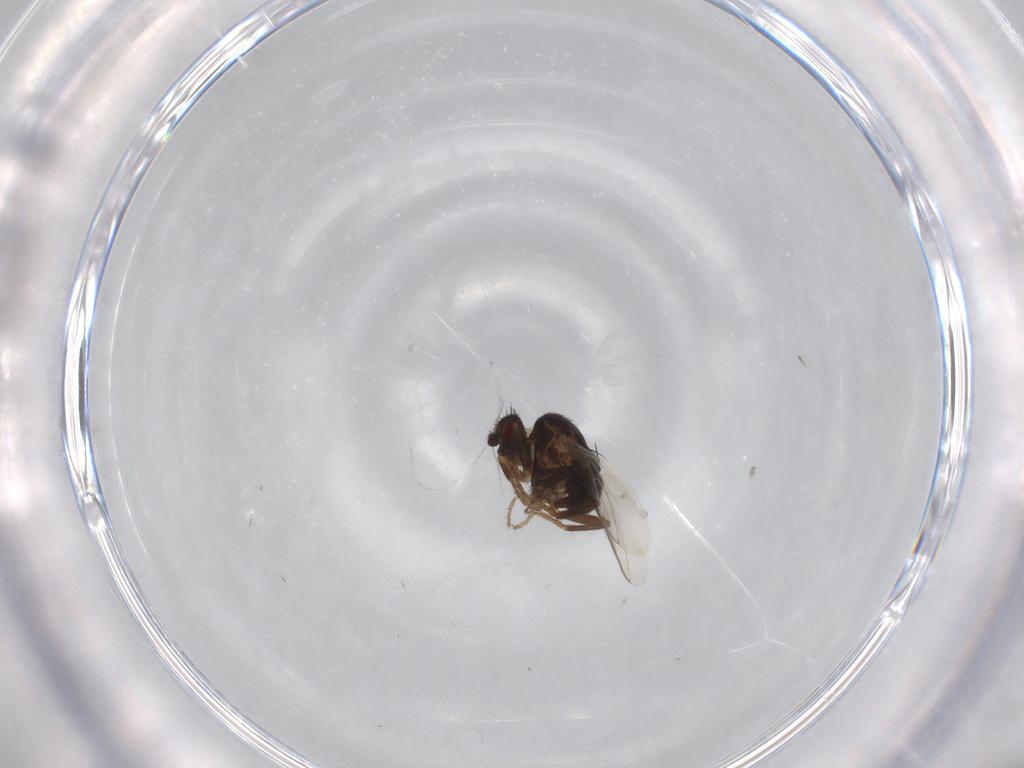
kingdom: Animalia
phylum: Arthropoda
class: Insecta
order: Diptera
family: Sphaeroceridae
